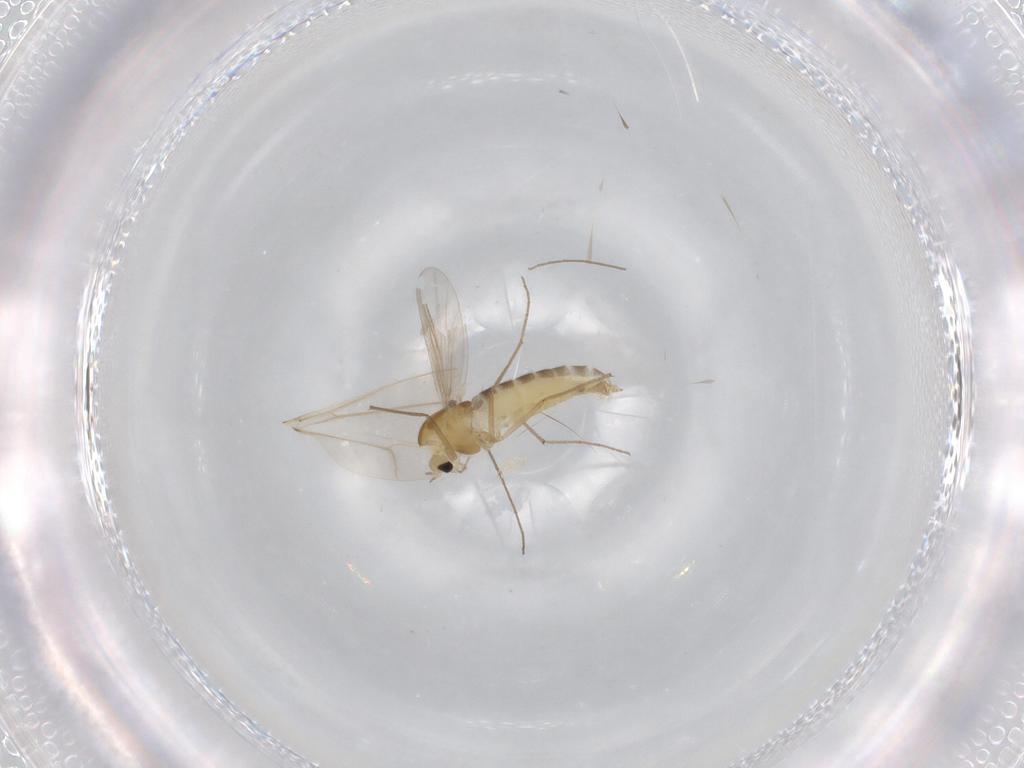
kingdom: Animalia
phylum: Arthropoda
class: Insecta
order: Diptera
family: Chironomidae
